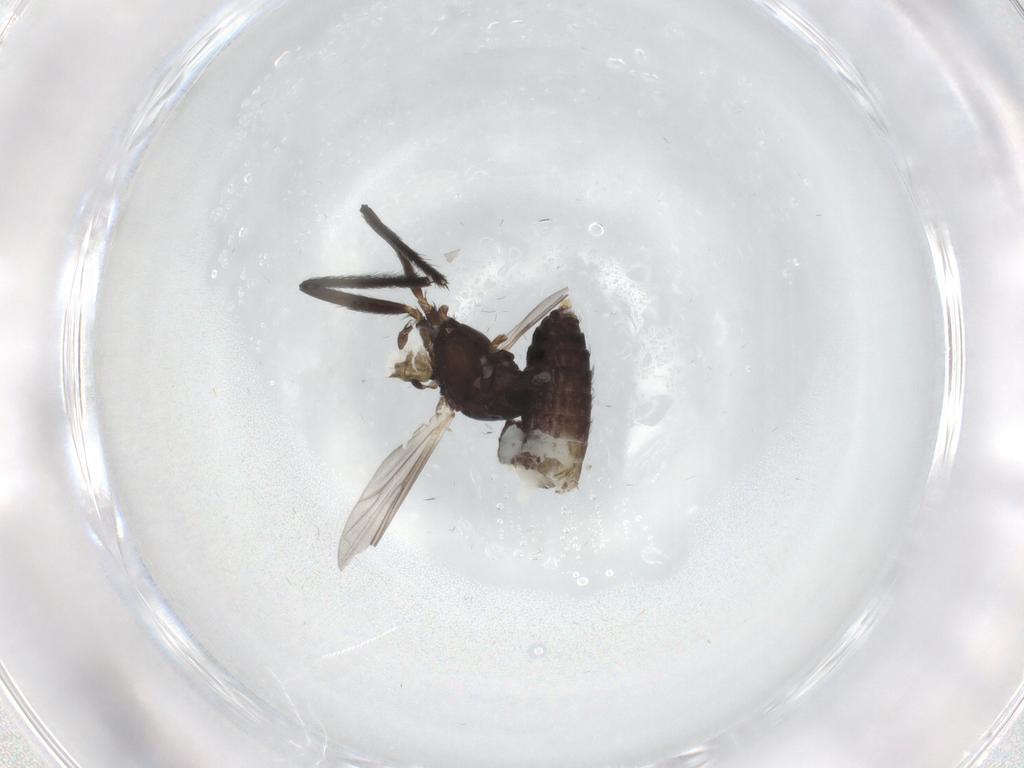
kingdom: Animalia
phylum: Arthropoda
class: Insecta
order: Diptera
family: Chironomidae
